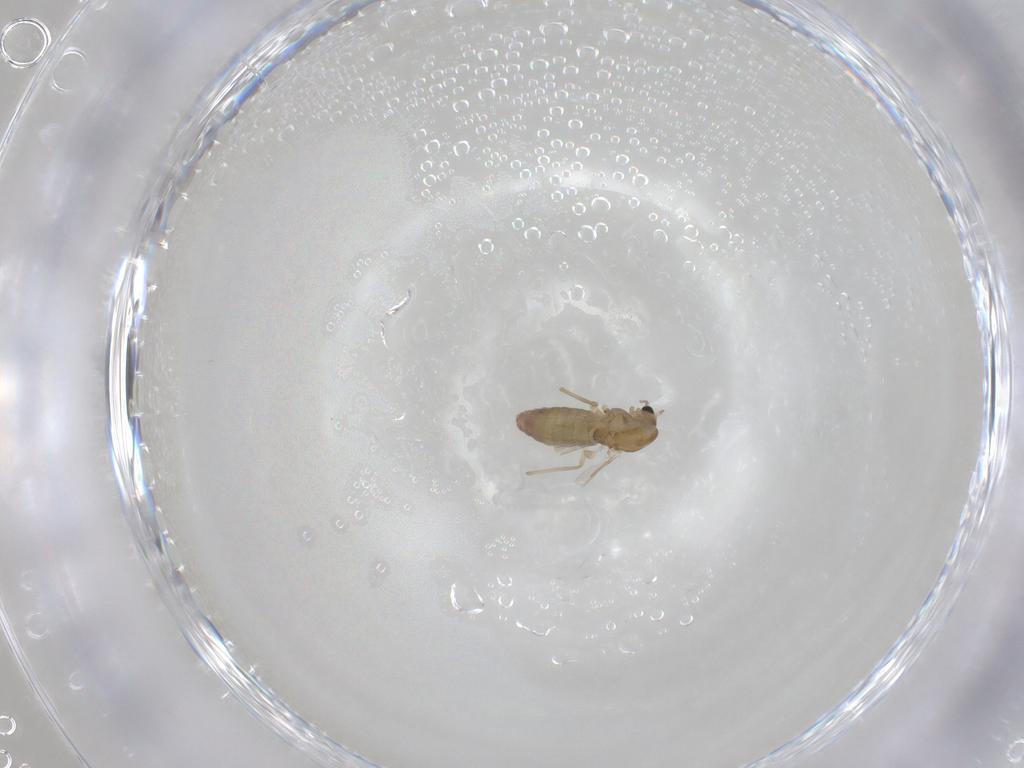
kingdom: Animalia
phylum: Arthropoda
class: Insecta
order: Diptera
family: Chironomidae
